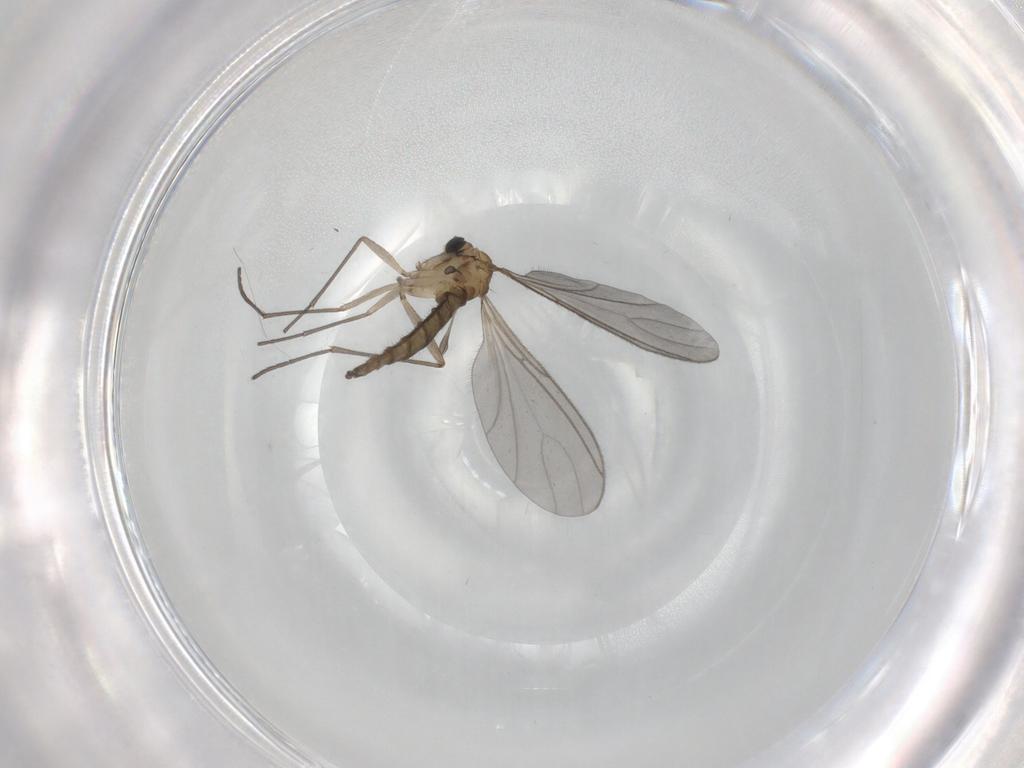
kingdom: Animalia
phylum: Arthropoda
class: Insecta
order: Diptera
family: Sciaridae
